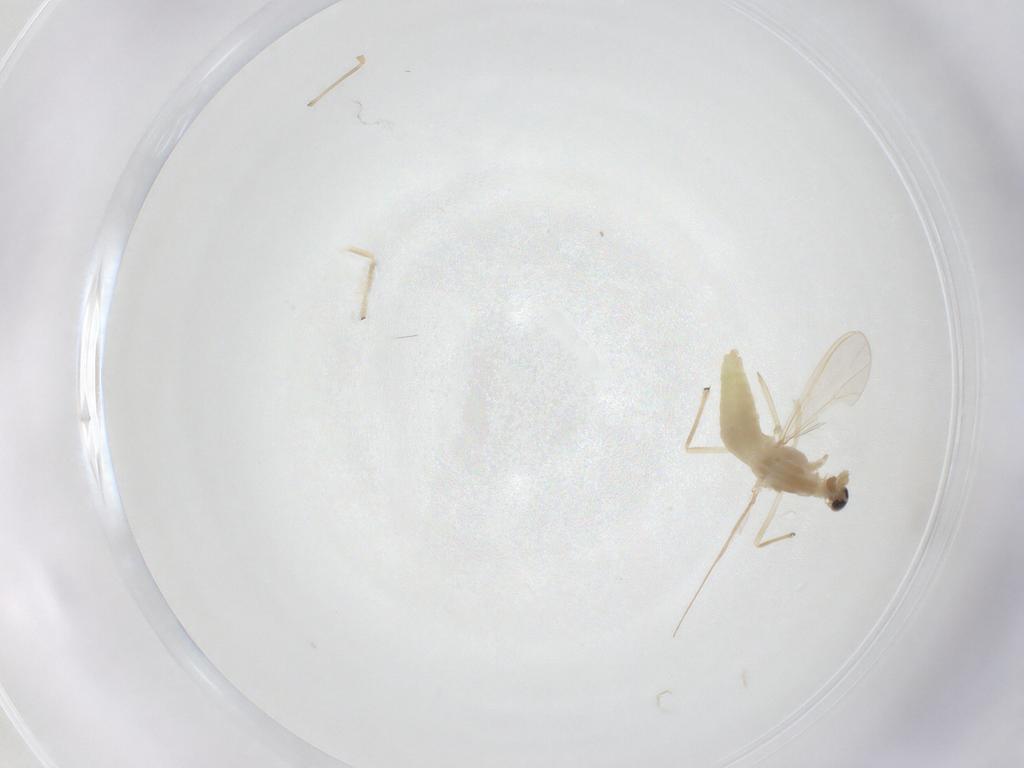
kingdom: Animalia
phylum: Arthropoda
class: Insecta
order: Diptera
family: Chironomidae
